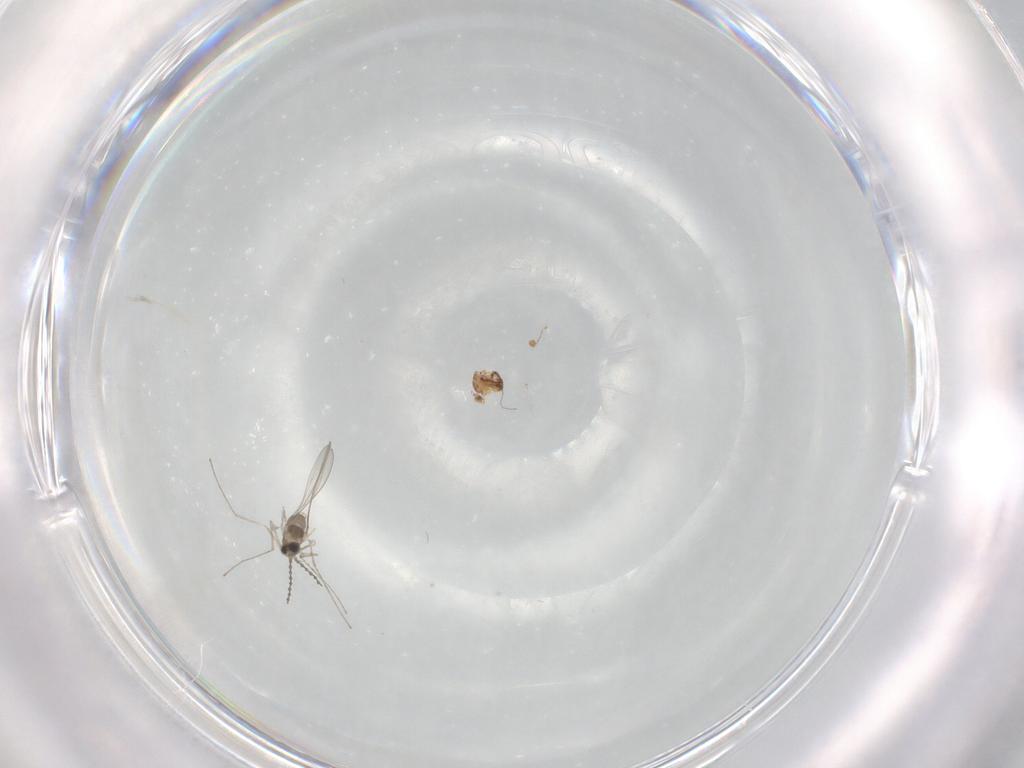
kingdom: Animalia
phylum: Arthropoda
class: Insecta
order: Diptera
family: Cecidomyiidae
